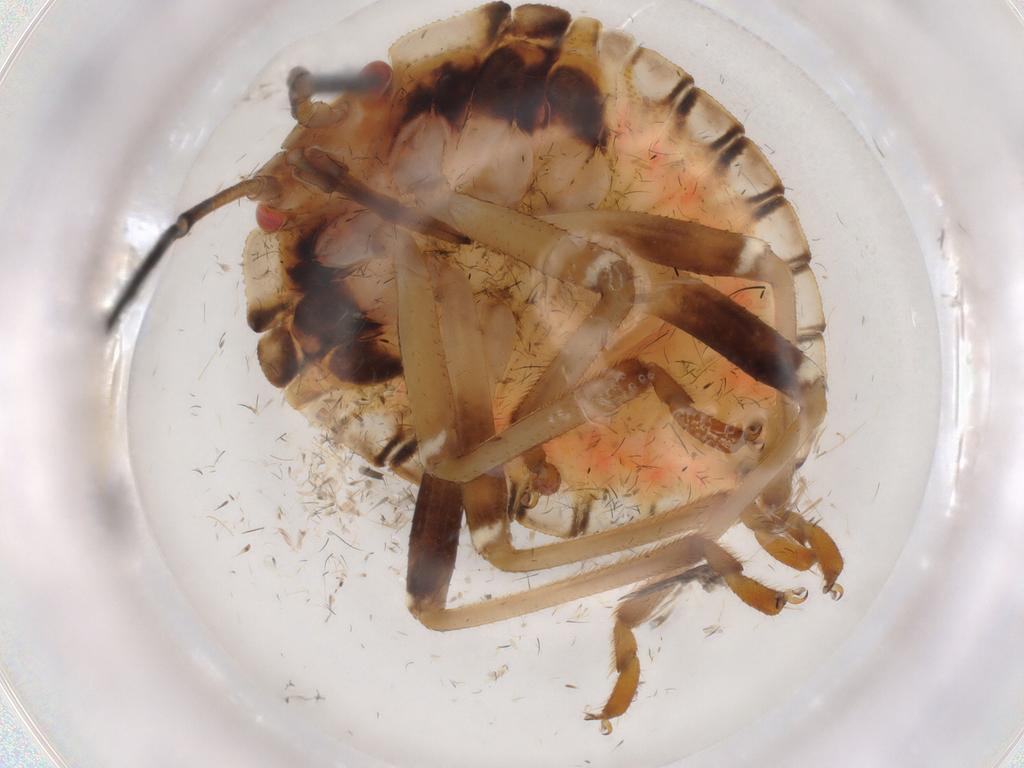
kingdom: Animalia
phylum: Arthropoda
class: Insecta
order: Hemiptera
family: Pentatomidae
